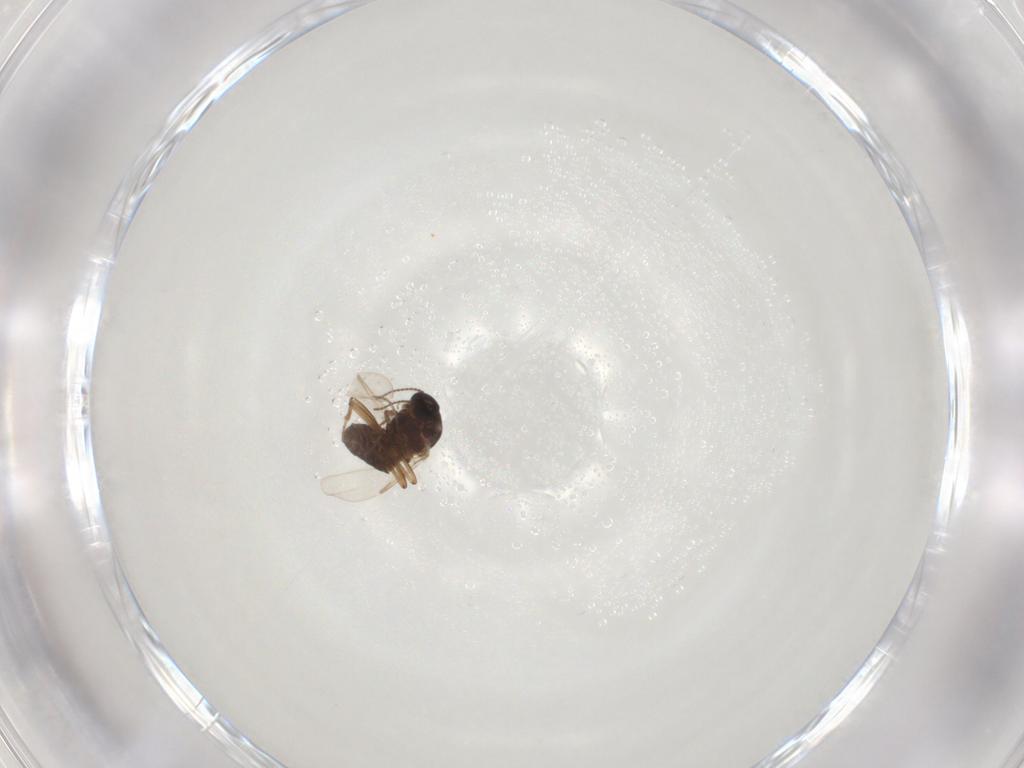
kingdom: Animalia
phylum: Arthropoda
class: Insecta
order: Diptera
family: Ceratopogonidae
